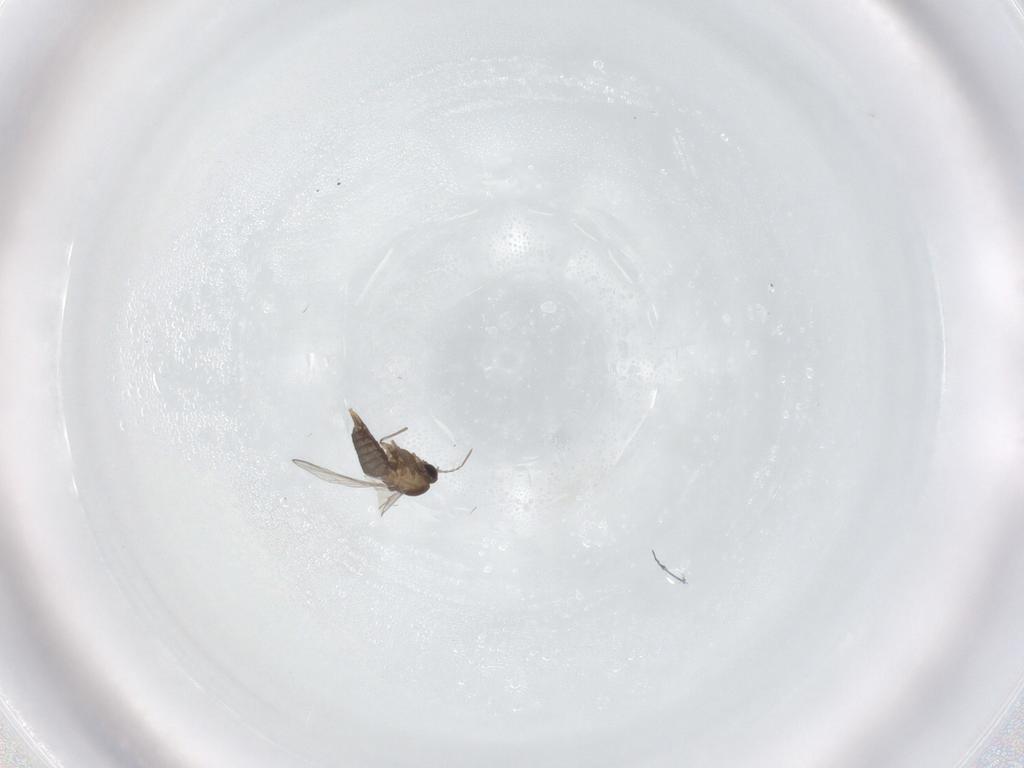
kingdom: Animalia
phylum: Arthropoda
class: Insecta
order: Diptera
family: Chironomidae
